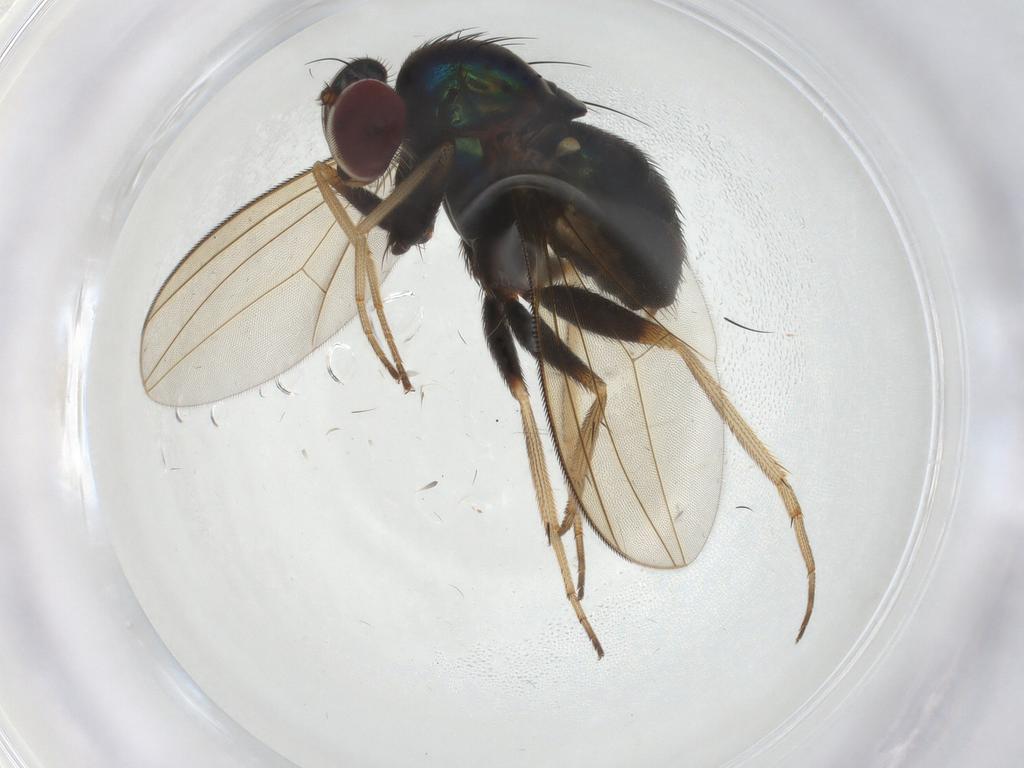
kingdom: Animalia
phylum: Arthropoda
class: Insecta
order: Diptera
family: Dolichopodidae
